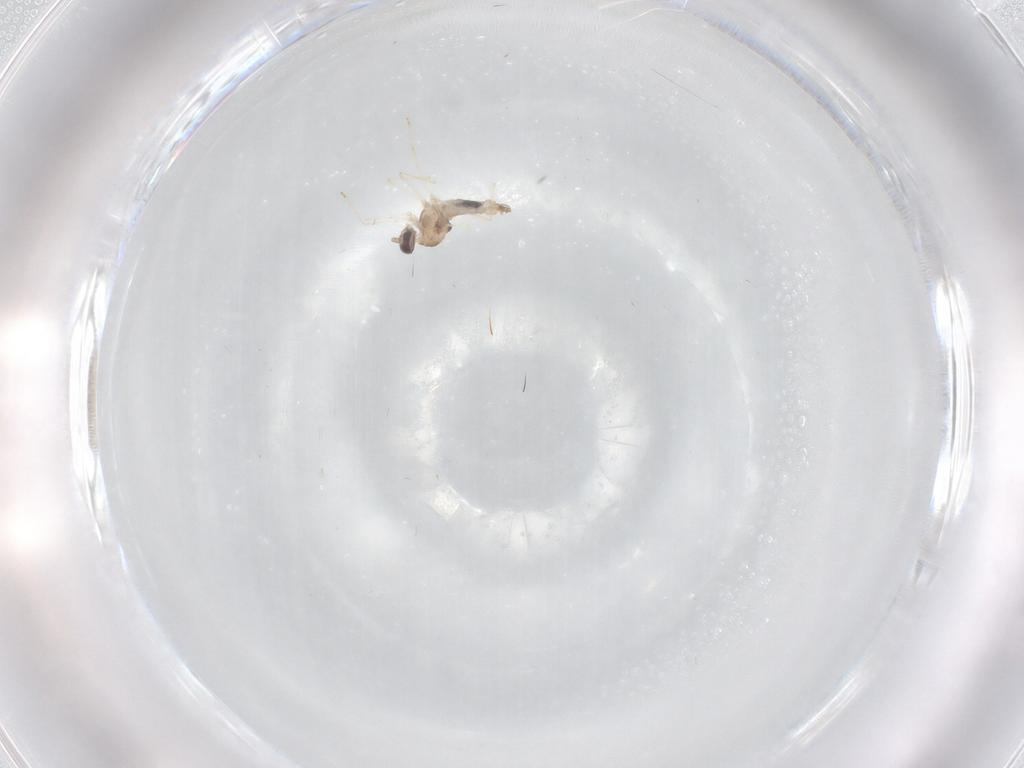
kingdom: Animalia
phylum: Arthropoda
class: Insecta
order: Diptera
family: Cecidomyiidae
